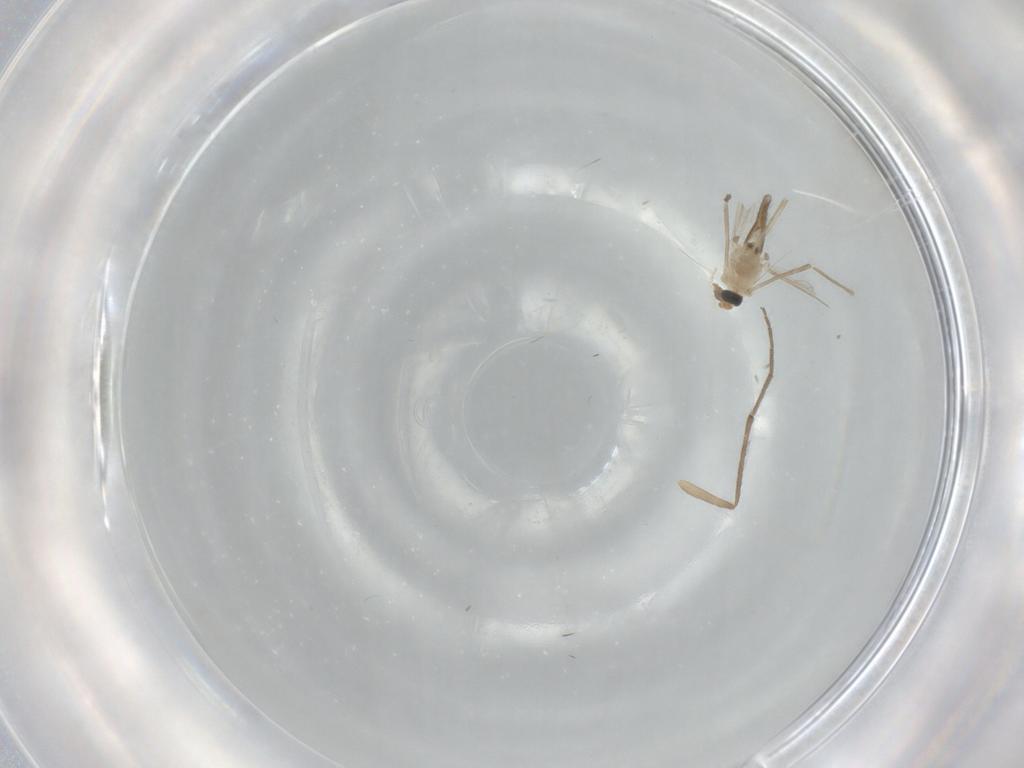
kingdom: Animalia
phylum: Arthropoda
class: Insecta
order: Diptera
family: Chironomidae
